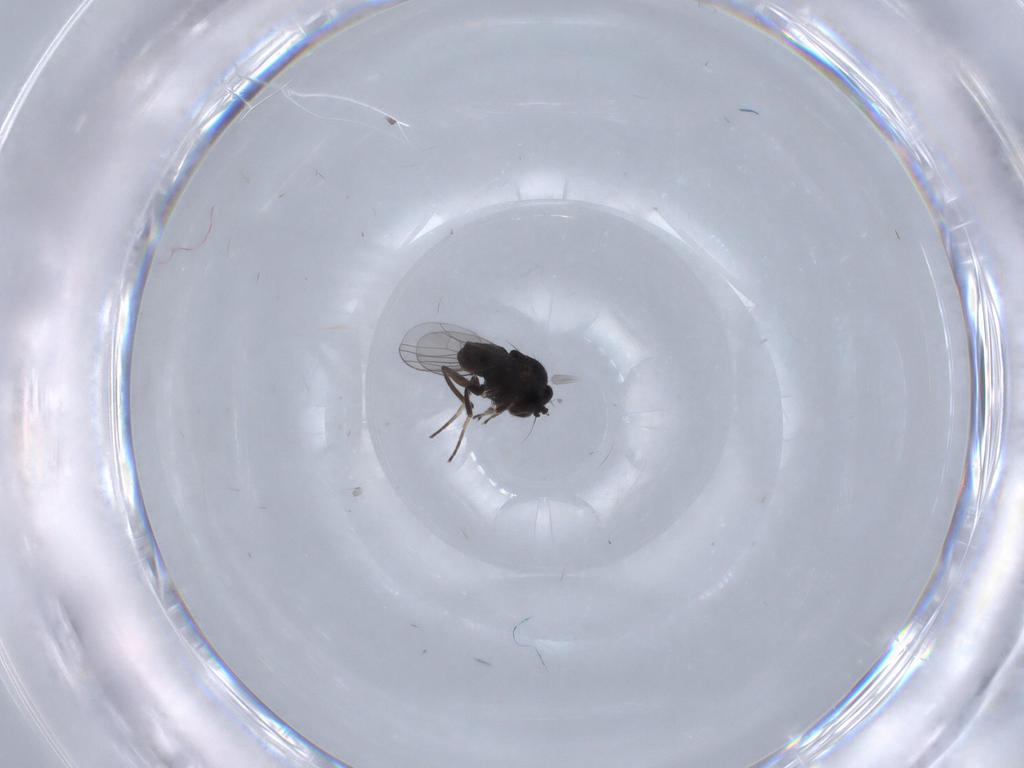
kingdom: Animalia
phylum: Arthropoda
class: Insecta
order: Diptera
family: Dolichopodidae
